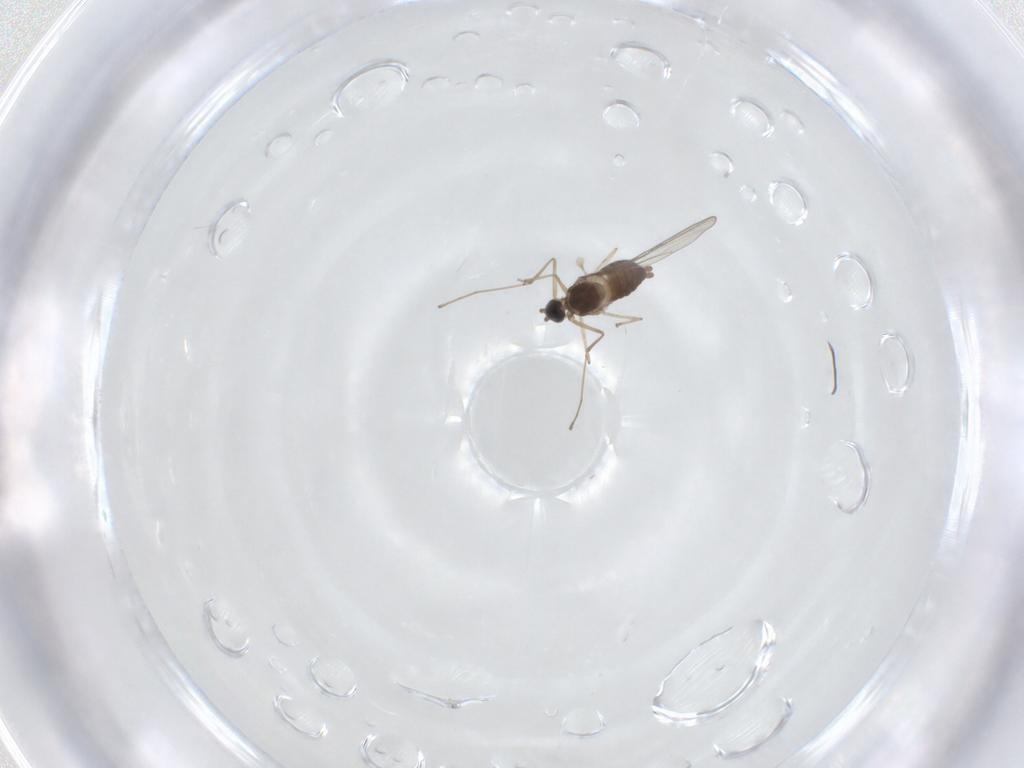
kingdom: Animalia
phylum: Arthropoda
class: Insecta
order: Diptera
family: Cecidomyiidae
